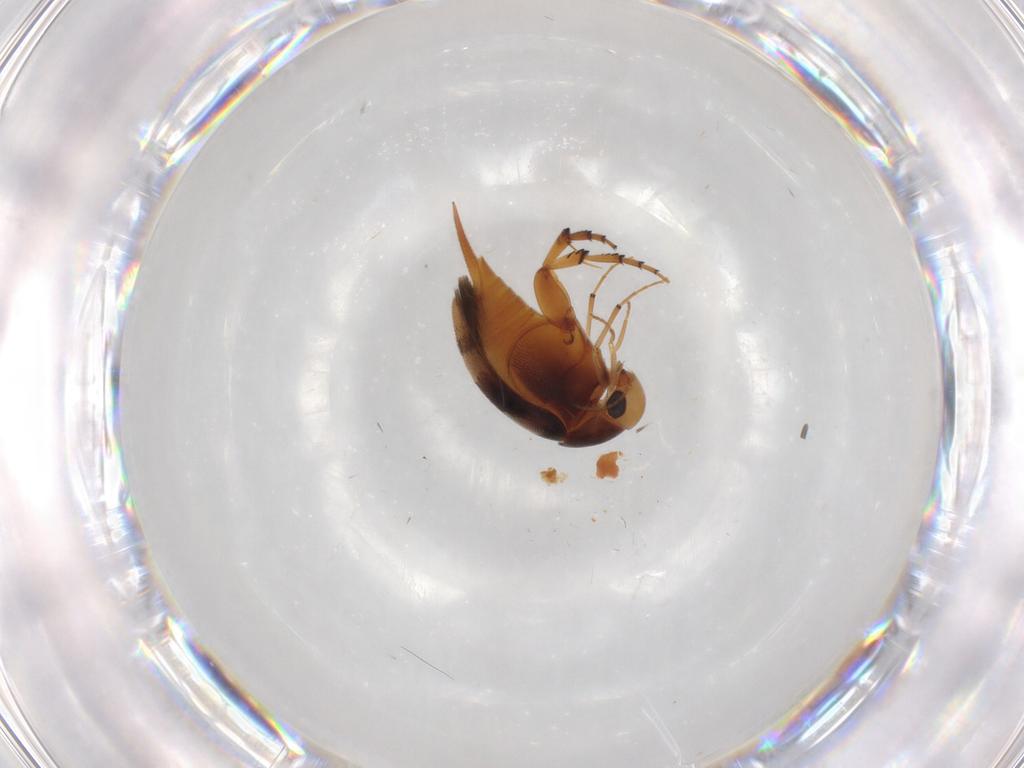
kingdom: Animalia
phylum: Arthropoda
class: Insecta
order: Coleoptera
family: Mordellidae
